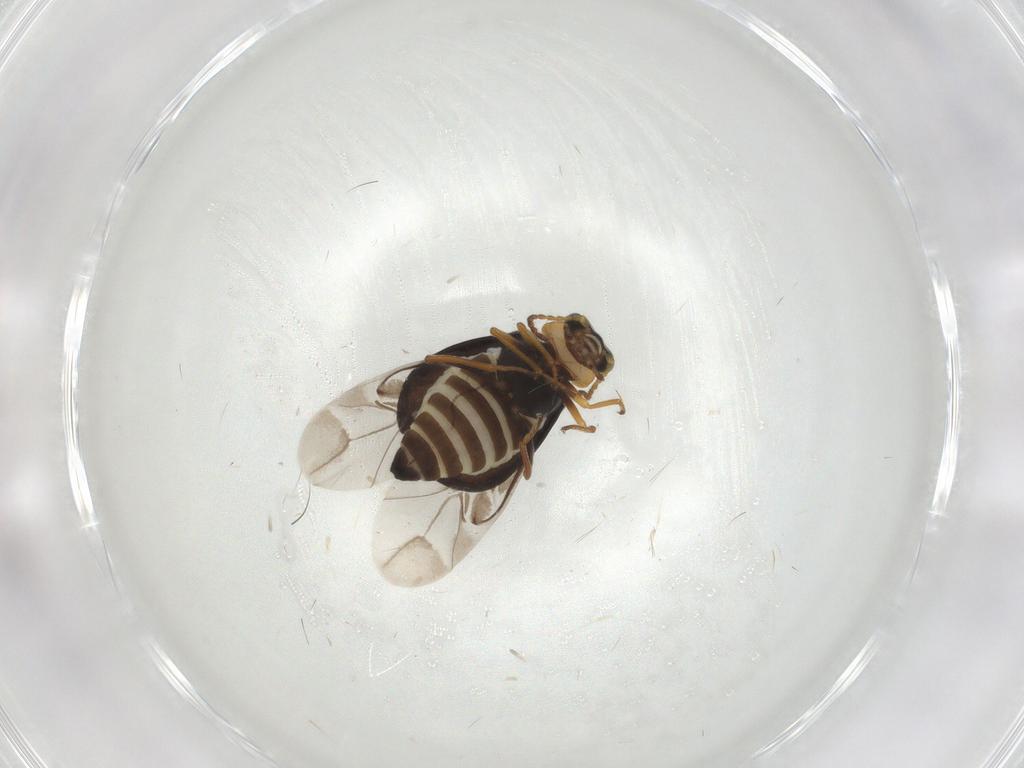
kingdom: Animalia
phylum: Arthropoda
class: Insecta
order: Coleoptera
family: Melyridae
